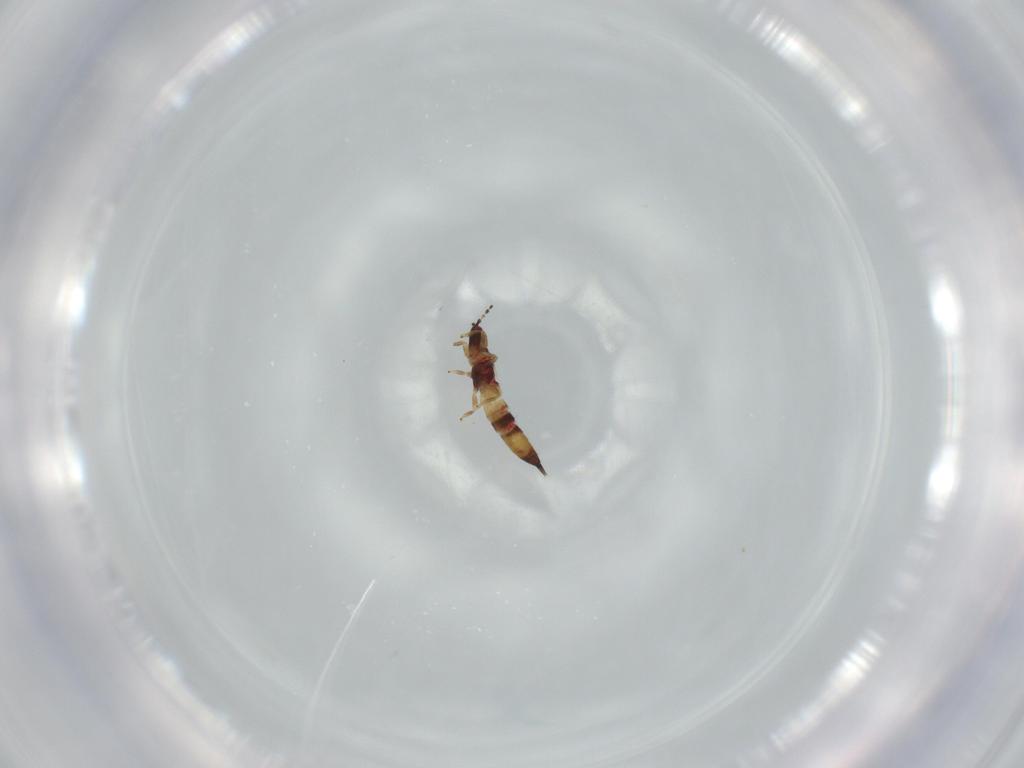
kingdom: Animalia
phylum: Arthropoda
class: Insecta
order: Thysanoptera
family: Phlaeothripidae
